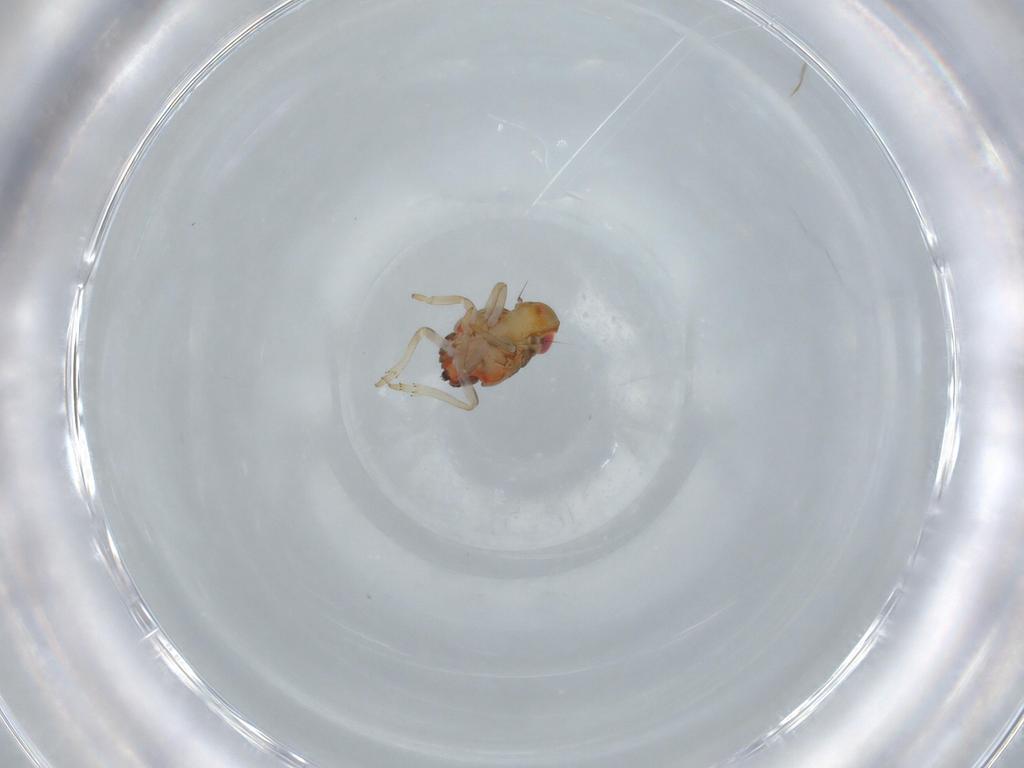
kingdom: Animalia
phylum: Arthropoda
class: Insecta
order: Hemiptera
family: Issidae
